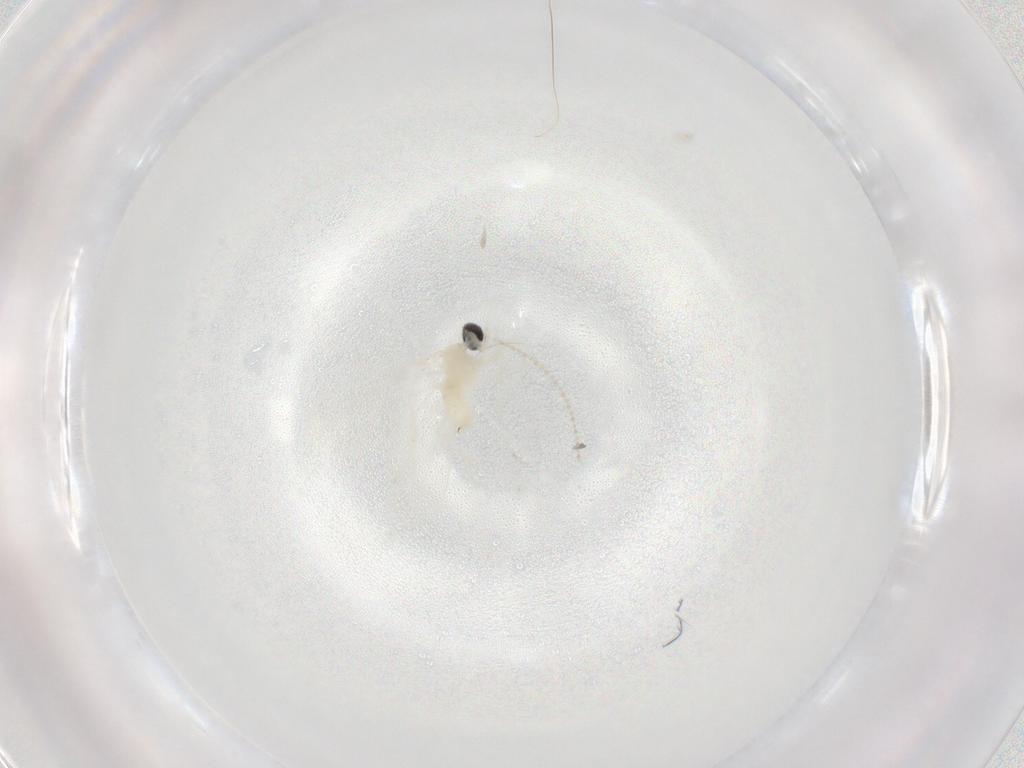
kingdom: Animalia
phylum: Arthropoda
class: Insecta
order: Diptera
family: Cecidomyiidae
